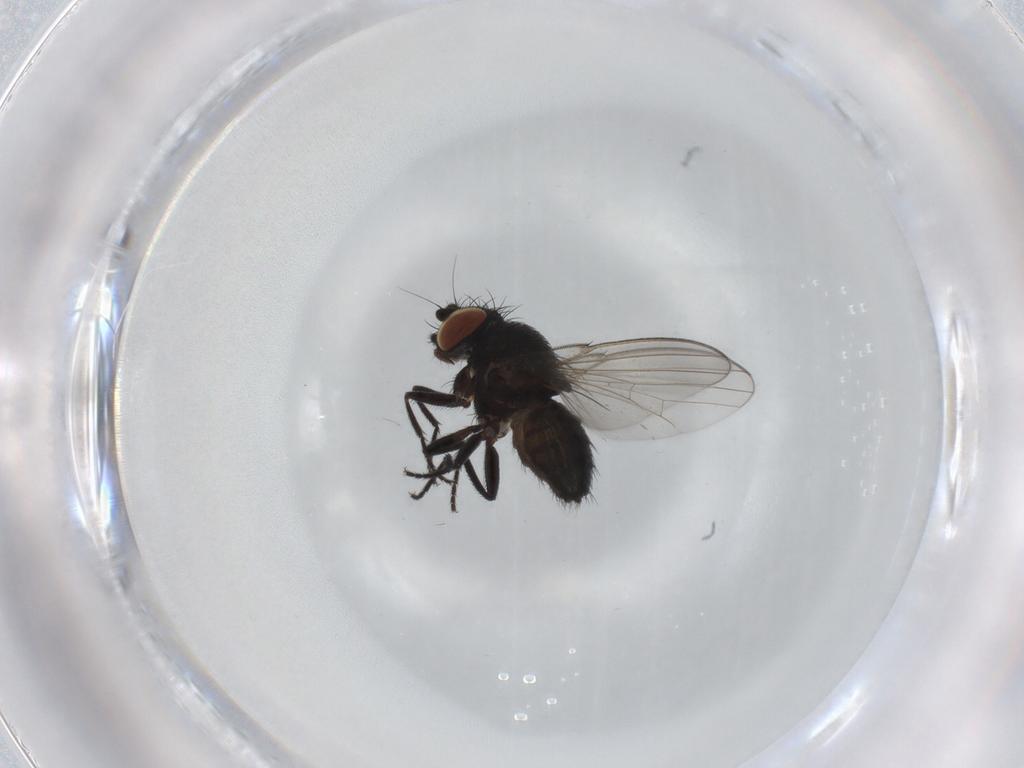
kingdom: Animalia
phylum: Arthropoda
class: Insecta
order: Diptera
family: Milichiidae
